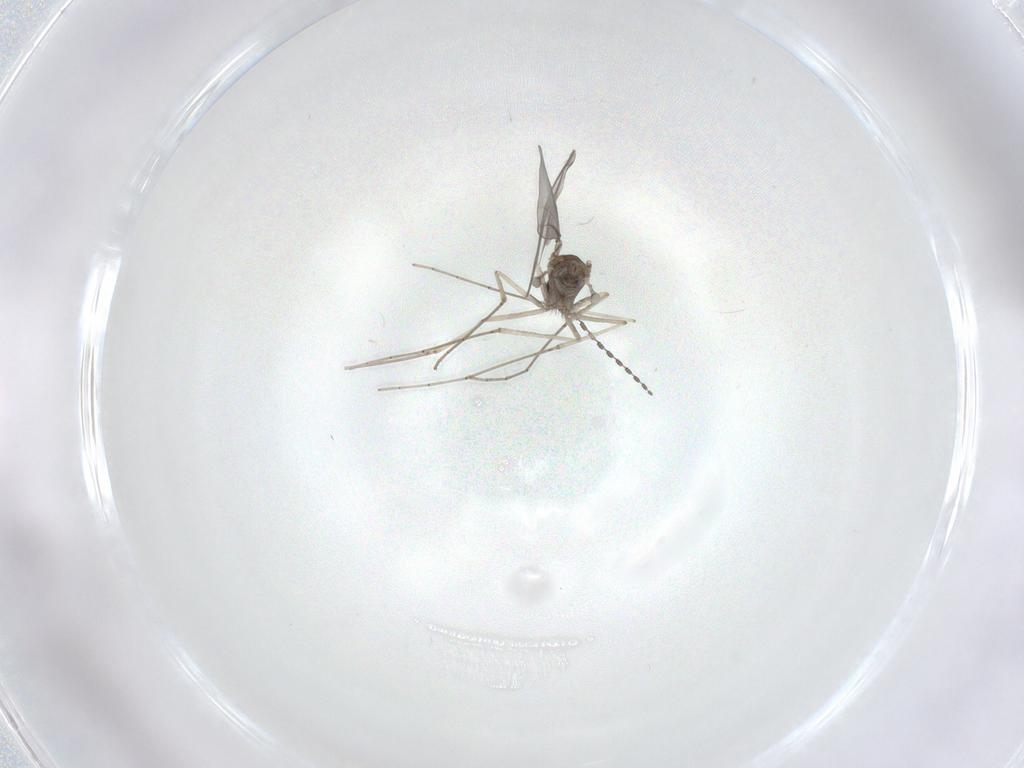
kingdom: Animalia
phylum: Arthropoda
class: Insecta
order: Diptera
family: Cecidomyiidae
